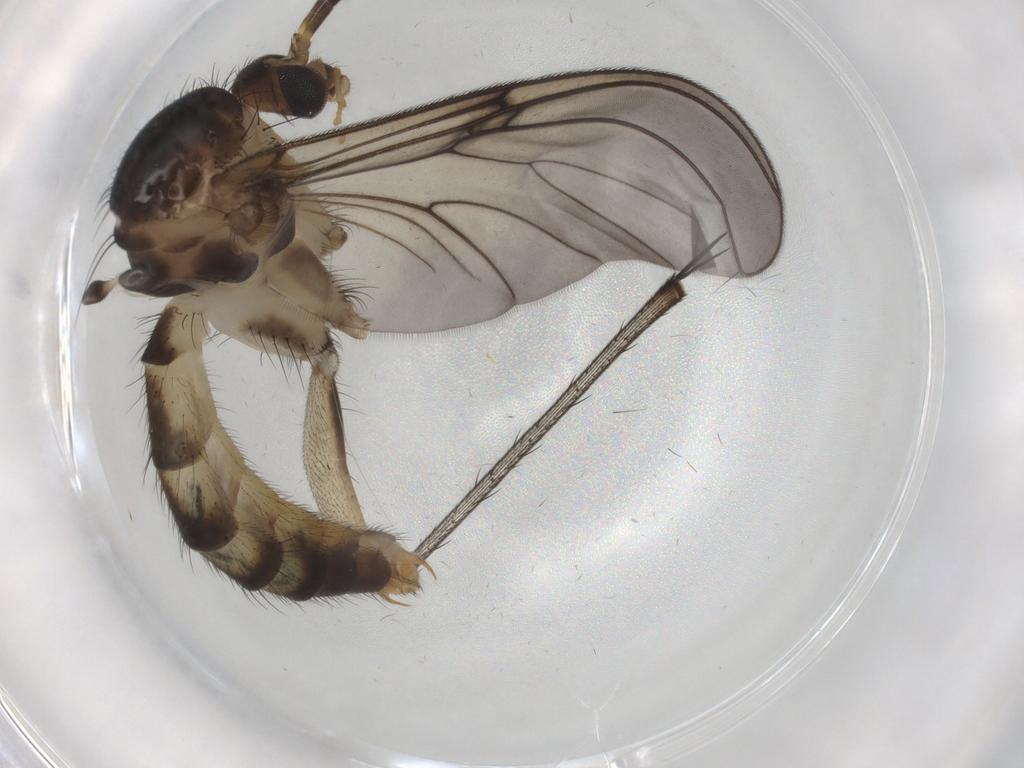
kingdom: Animalia
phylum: Arthropoda
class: Insecta
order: Diptera
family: Mycetophilidae
